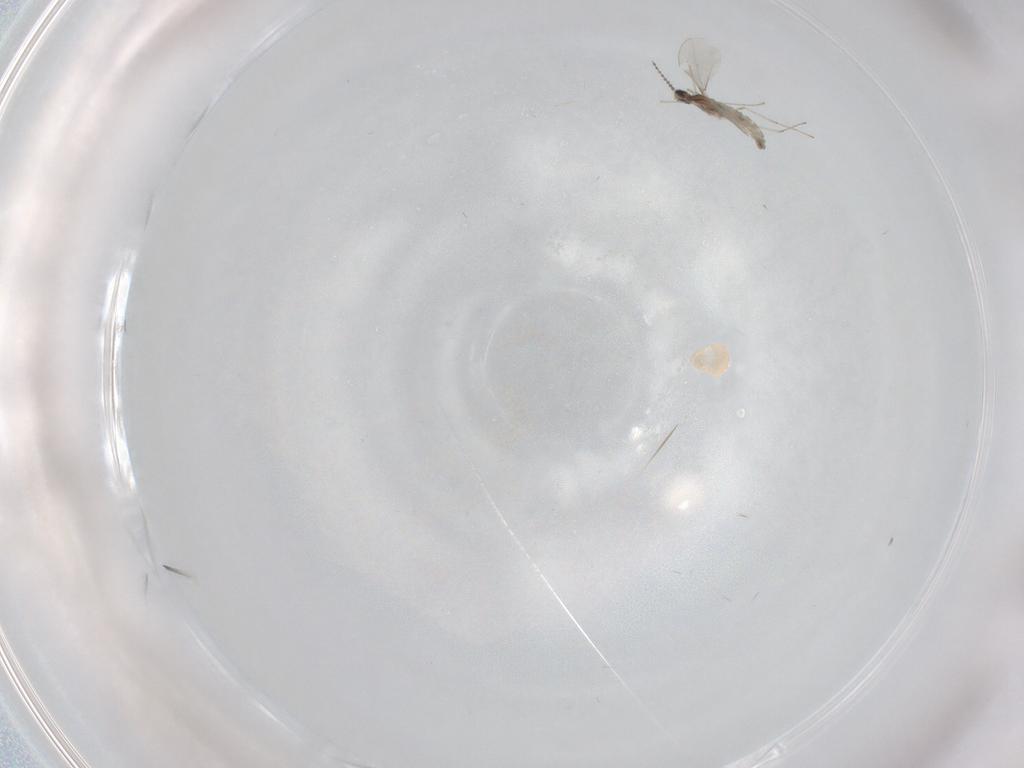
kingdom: Animalia
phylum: Arthropoda
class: Insecta
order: Diptera
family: Cecidomyiidae
